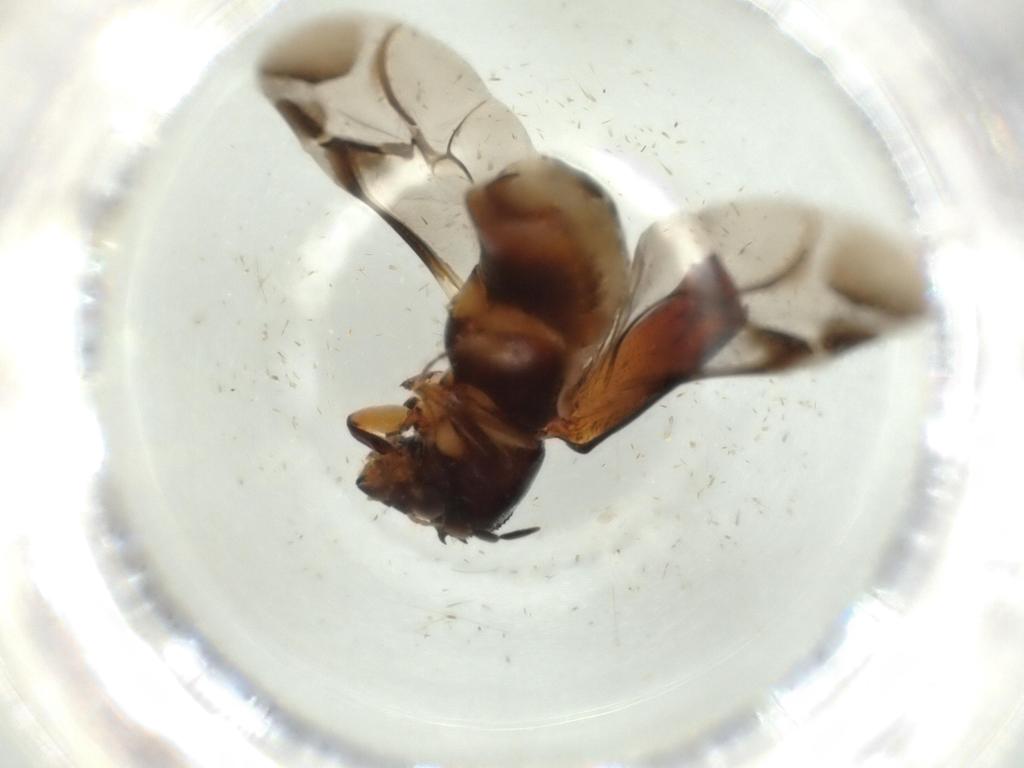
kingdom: Animalia
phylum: Arthropoda
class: Insecta
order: Coleoptera
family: Bostrichidae
